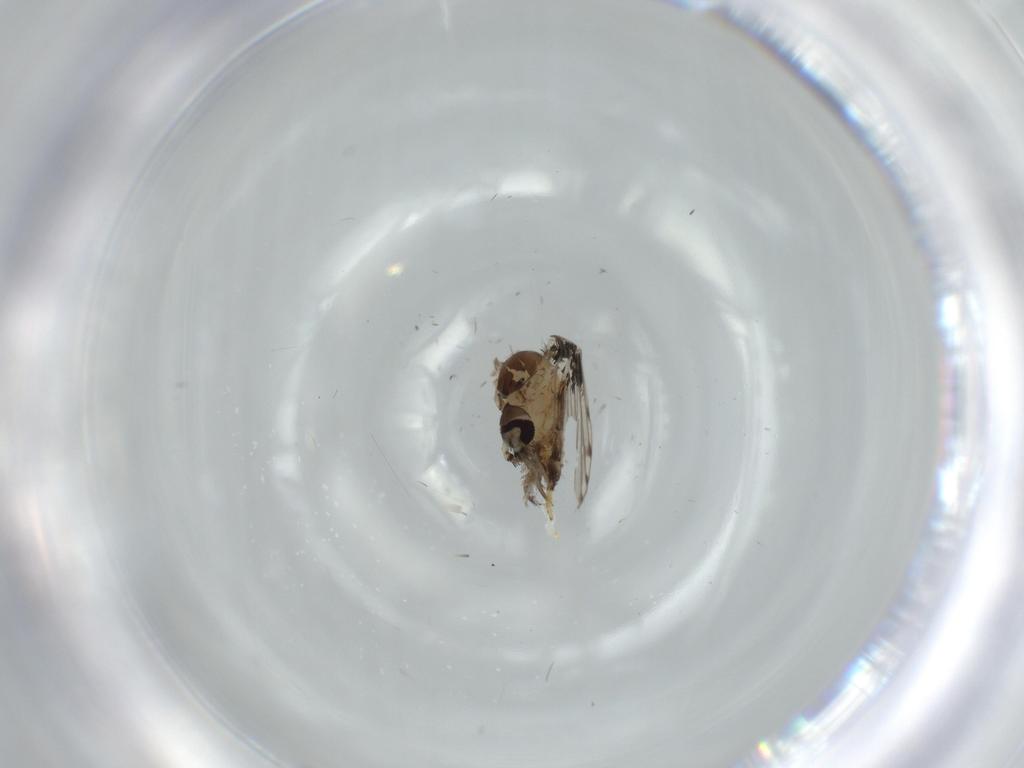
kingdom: Animalia
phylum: Arthropoda
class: Insecta
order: Diptera
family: Psychodidae
